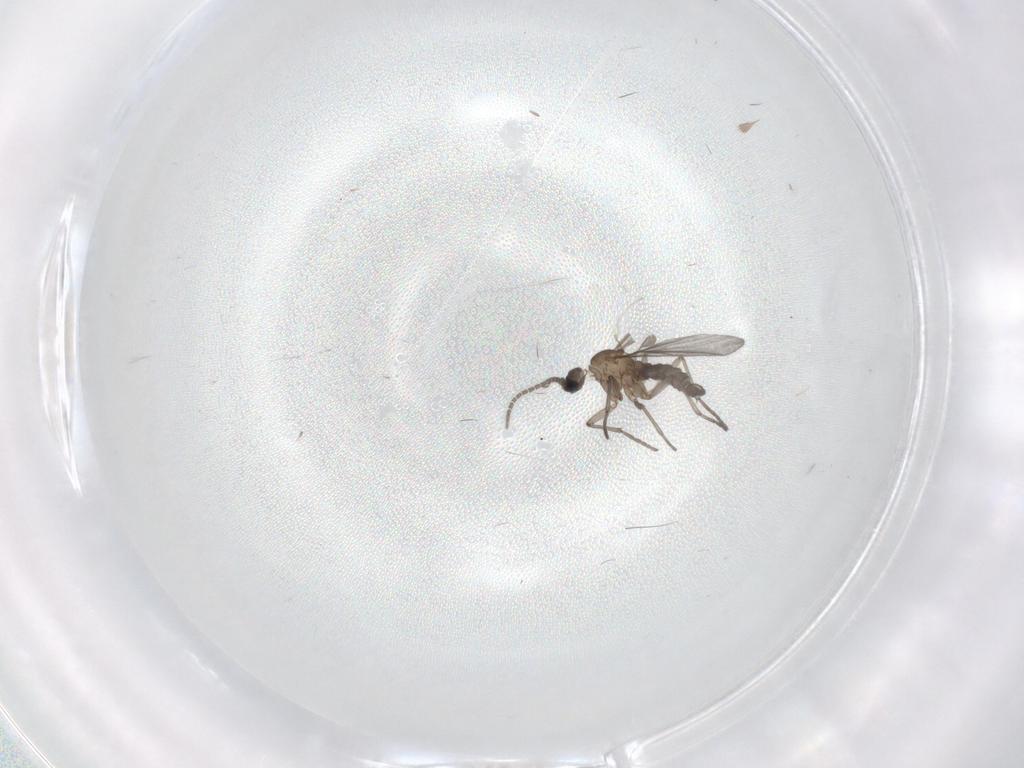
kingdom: Animalia
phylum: Arthropoda
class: Insecta
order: Diptera
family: Sciaridae
